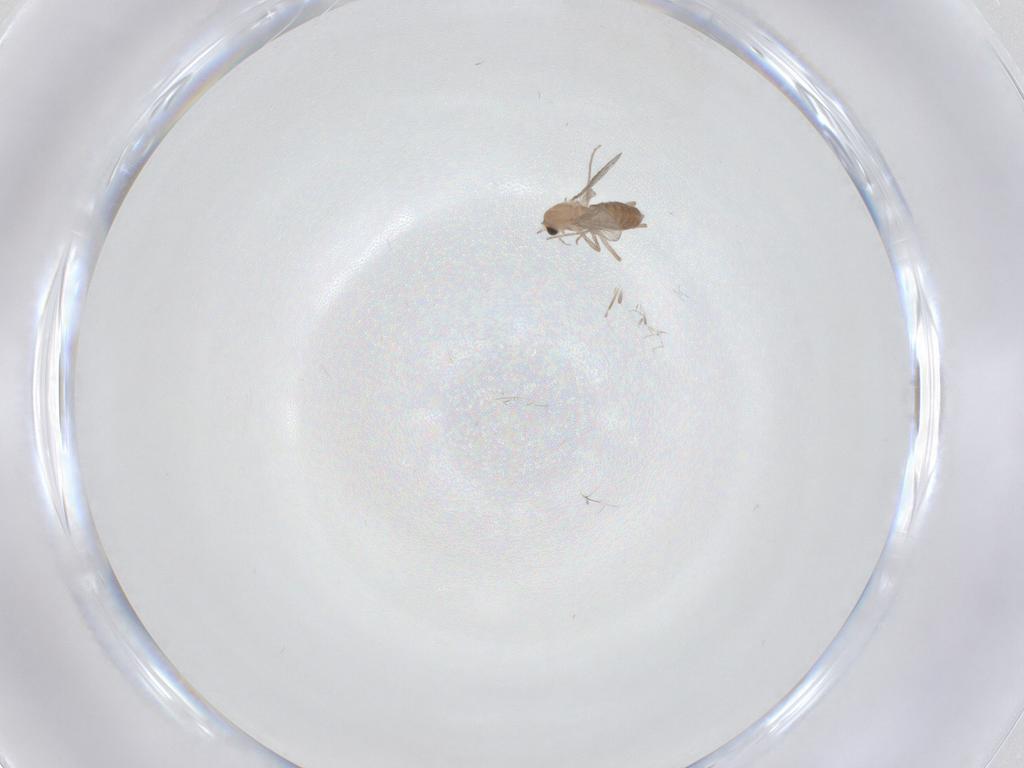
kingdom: Animalia
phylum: Arthropoda
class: Insecta
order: Diptera
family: Chironomidae
